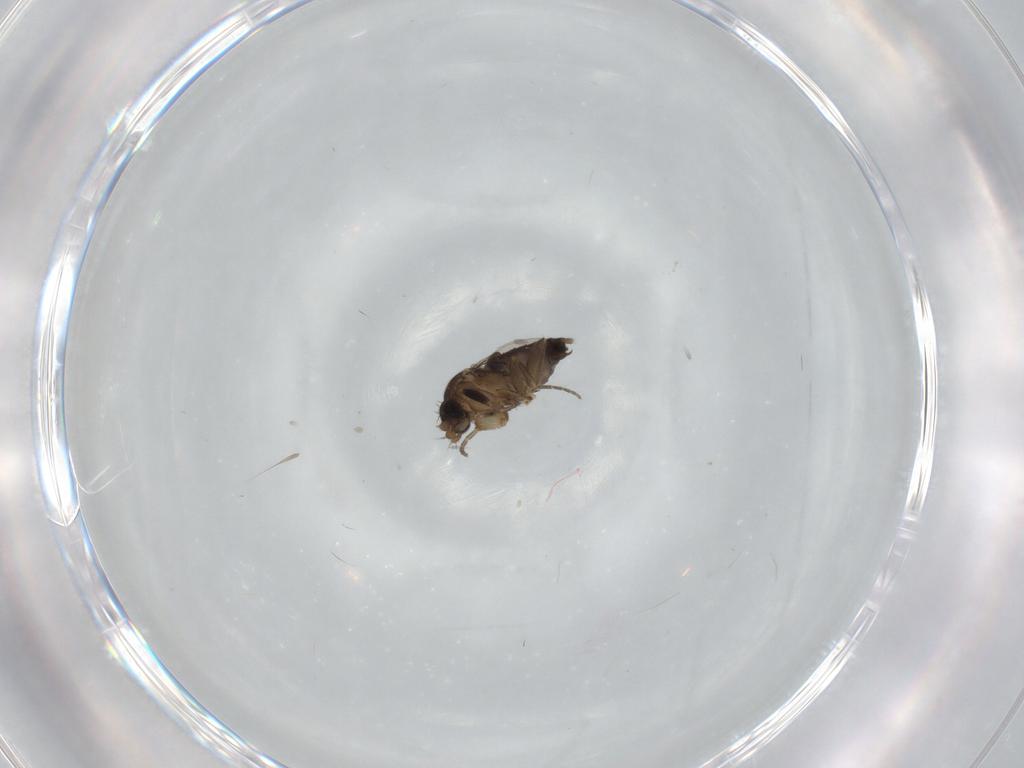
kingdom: Animalia
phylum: Arthropoda
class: Insecta
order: Diptera
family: Phoridae
